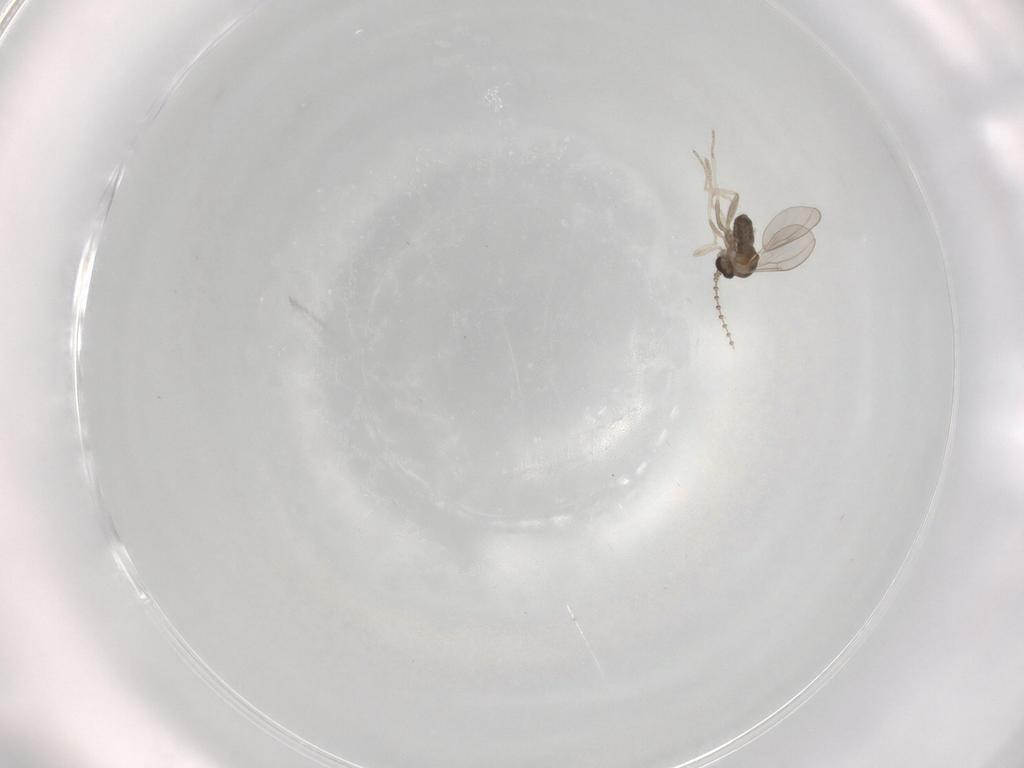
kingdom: Animalia
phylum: Arthropoda
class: Insecta
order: Diptera
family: Cecidomyiidae
